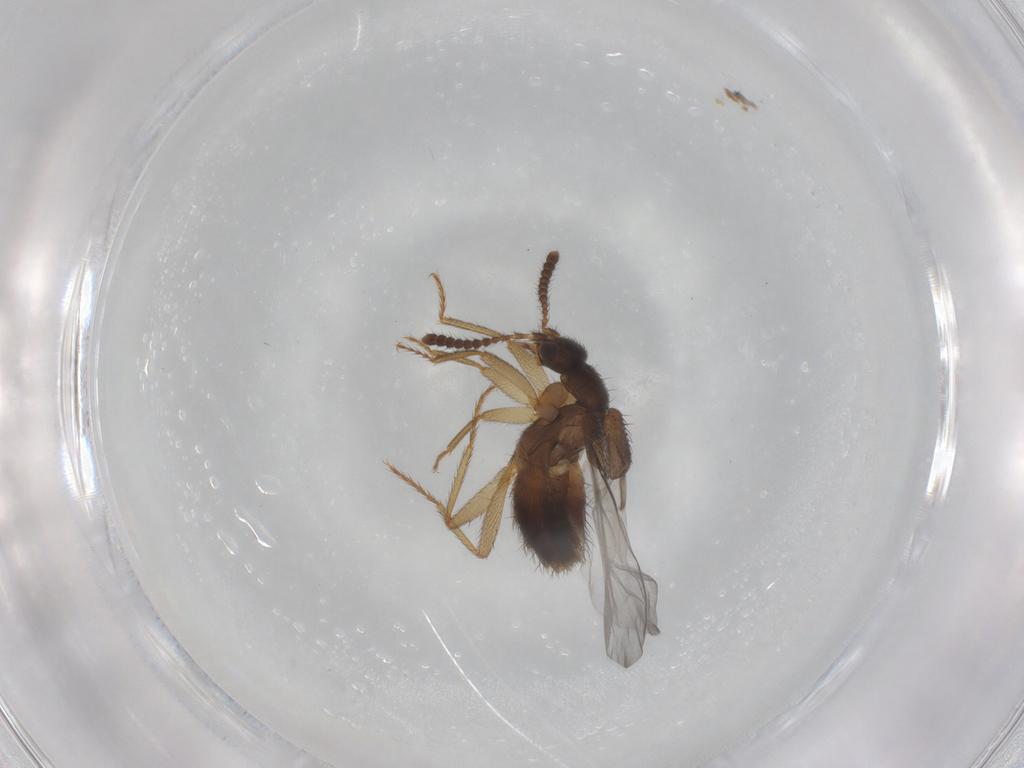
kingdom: Animalia
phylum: Arthropoda
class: Insecta
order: Coleoptera
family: Staphylinidae
